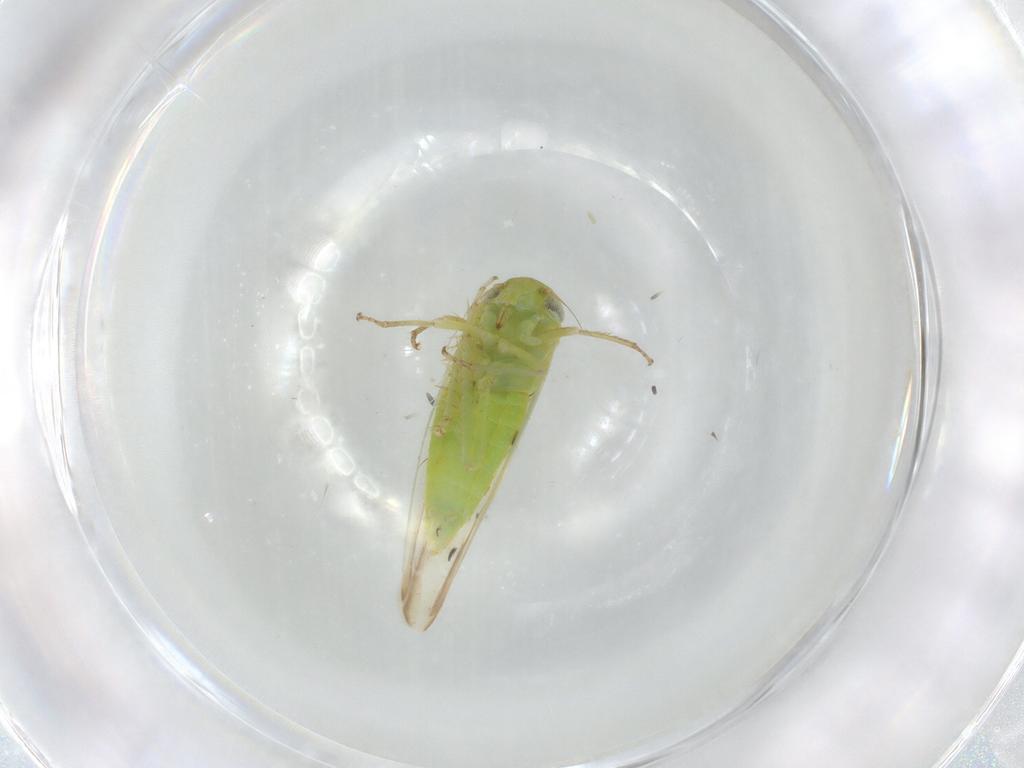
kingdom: Animalia
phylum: Arthropoda
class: Insecta
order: Hemiptera
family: Cicadellidae
